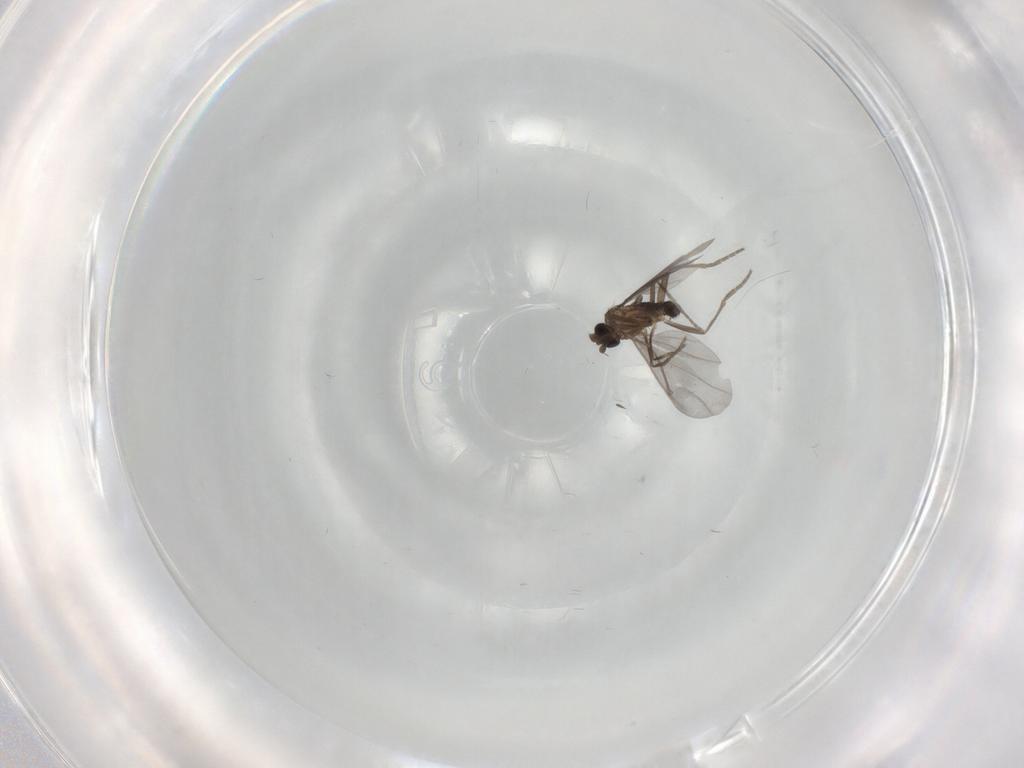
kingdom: Animalia
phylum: Arthropoda
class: Insecta
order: Diptera
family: Phoridae
